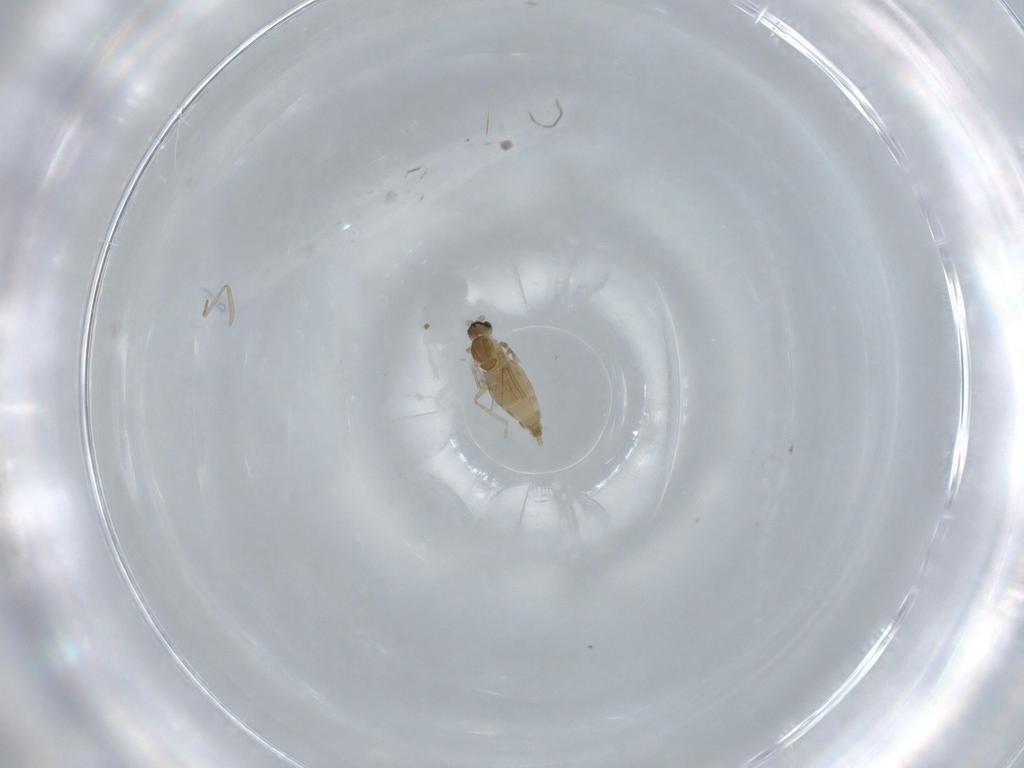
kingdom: Animalia
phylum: Arthropoda
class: Insecta
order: Diptera
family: Cecidomyiidae
